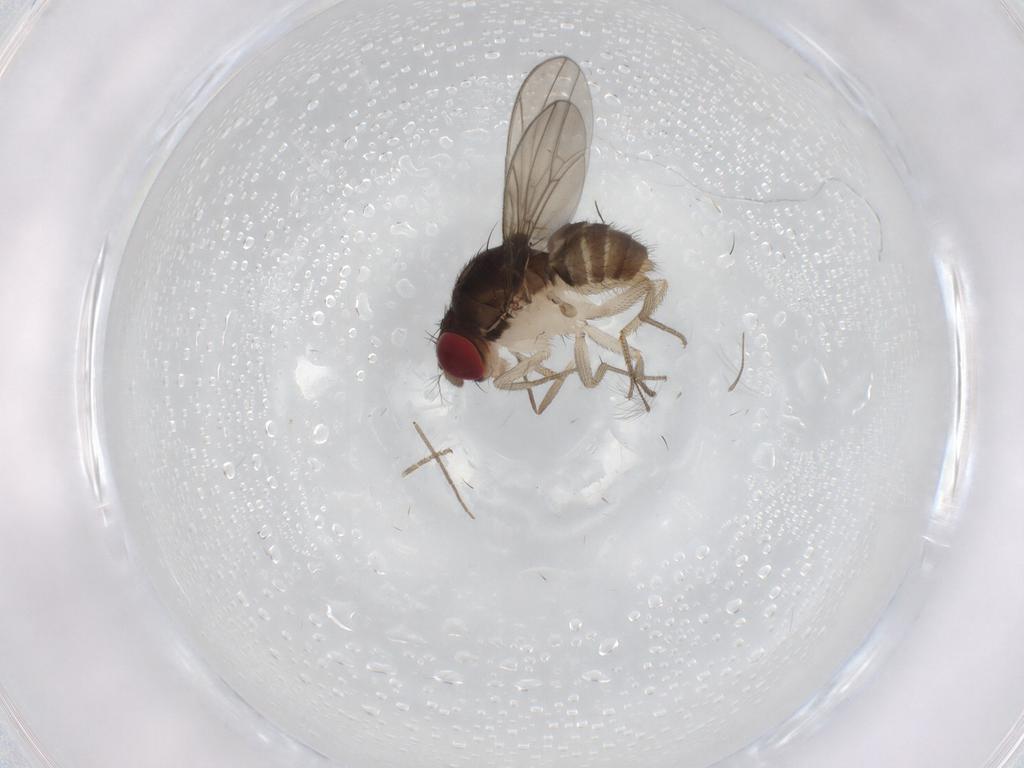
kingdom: Animalia
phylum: Arthropoda
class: Insecta
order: Diptera
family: Drosophilidae
